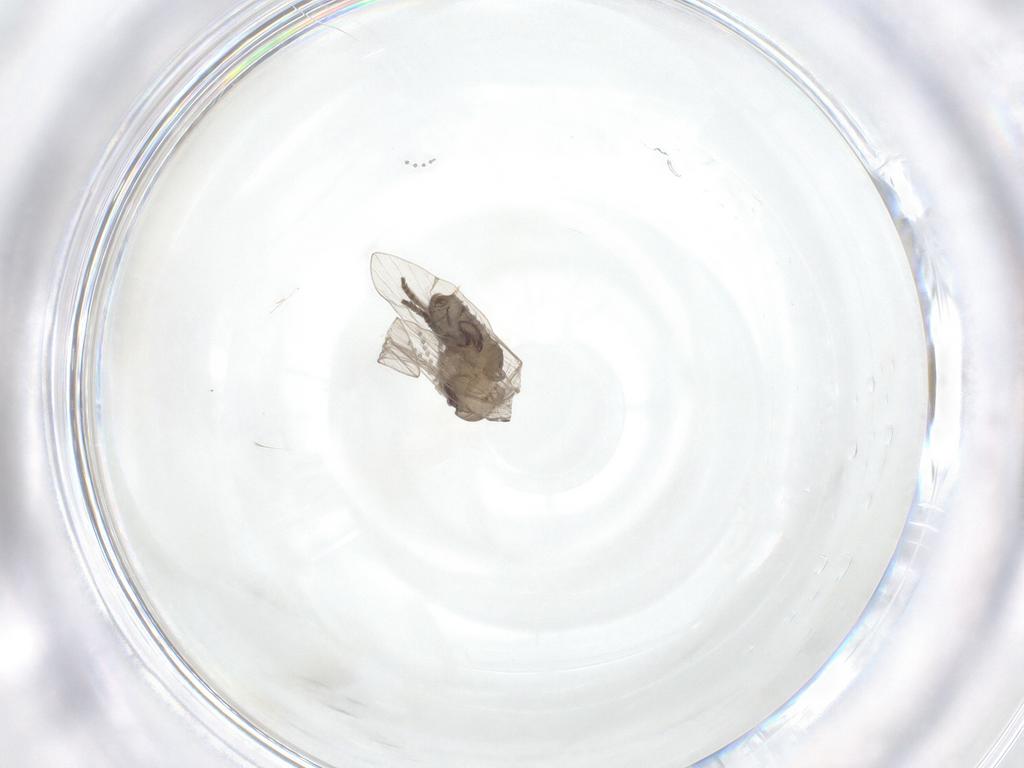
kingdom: Animalia
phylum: Arthropoda
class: Insecta
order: Diptera
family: Psychodidae
